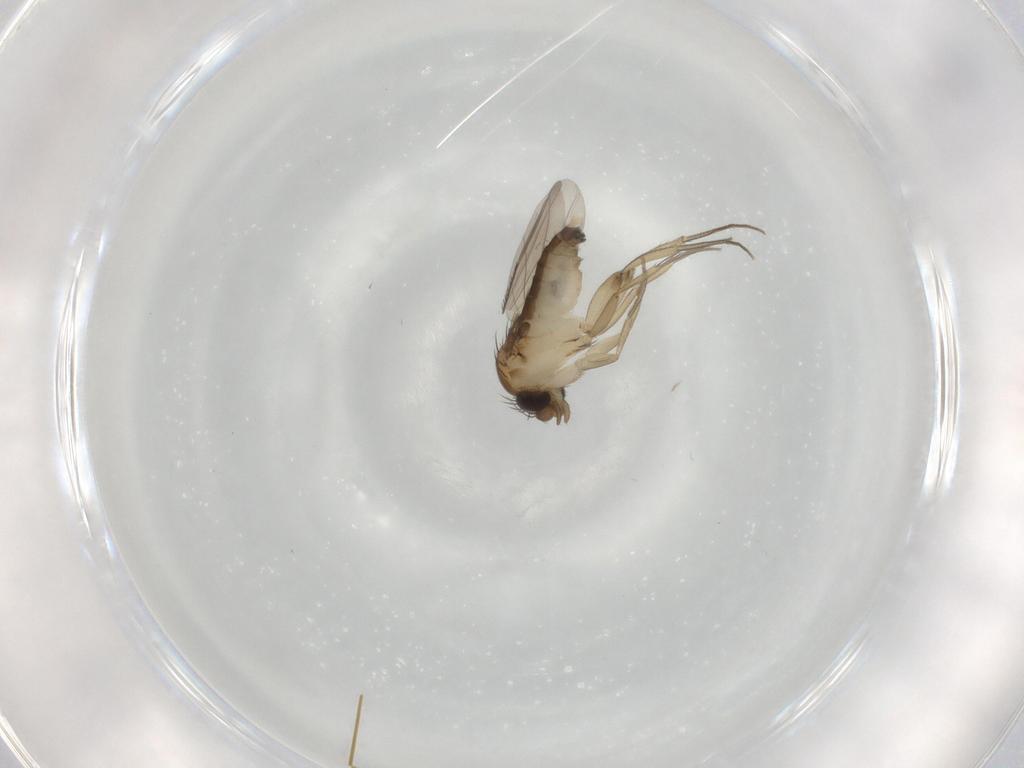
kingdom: Animalia
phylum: Arthropoda
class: Insecta
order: Diptera
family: Phoridae
